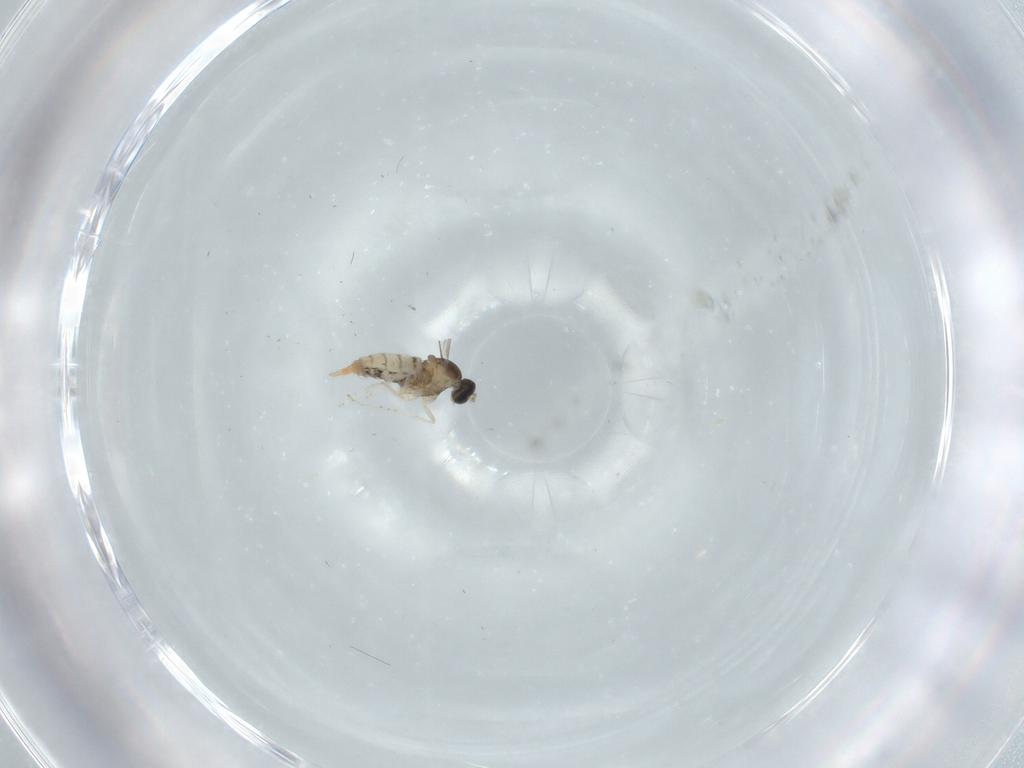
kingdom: Animalia
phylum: Arthropoda
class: Insecta
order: Diptera
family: Cecidomyiidae
